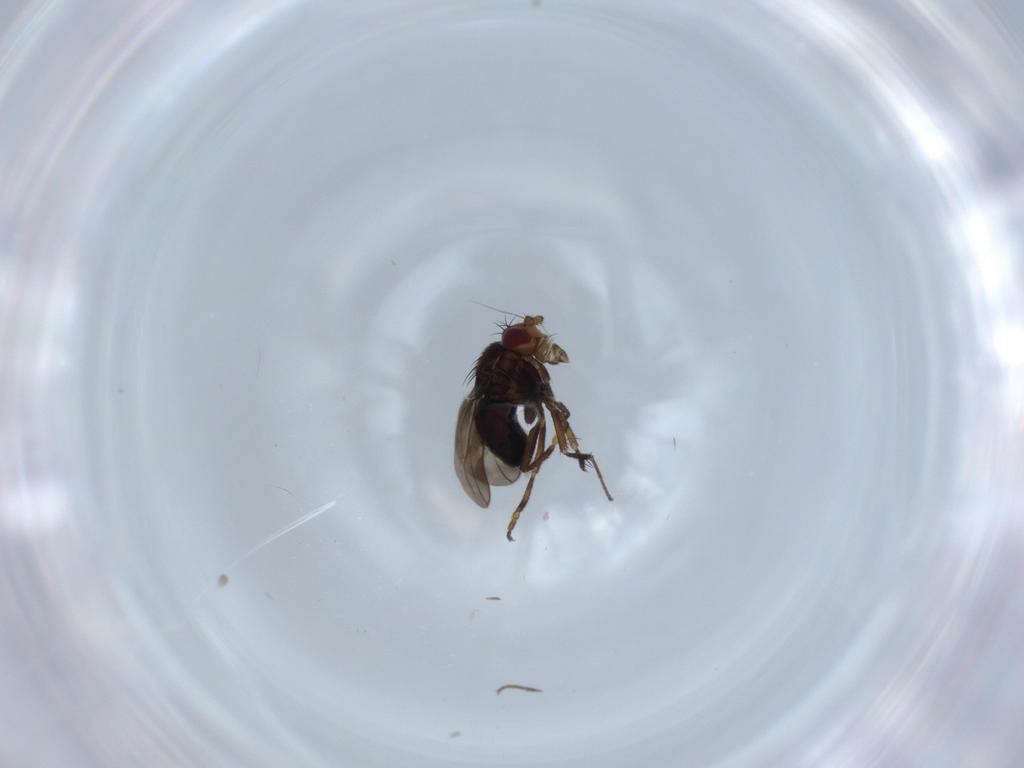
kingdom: Animalia
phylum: Arthropoda
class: Insecta
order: Diptera
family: Sphaeroceridae
